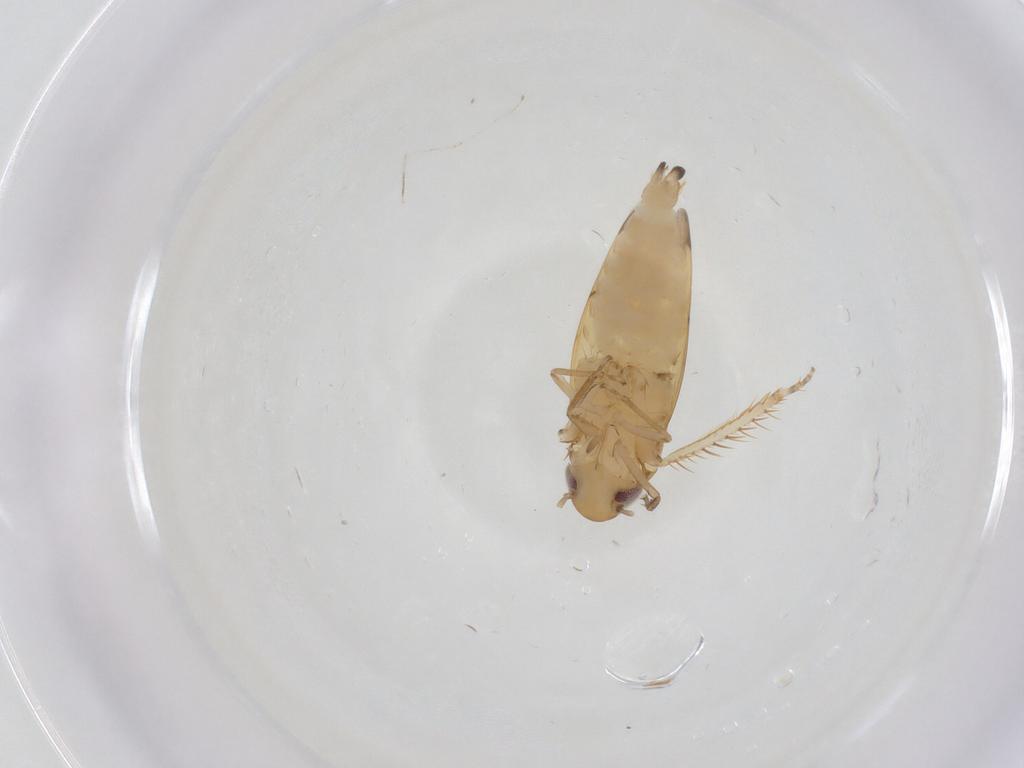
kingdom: Animalia
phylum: Arthropoda
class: Insecta
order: Hemiptera
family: Cicadellidae
